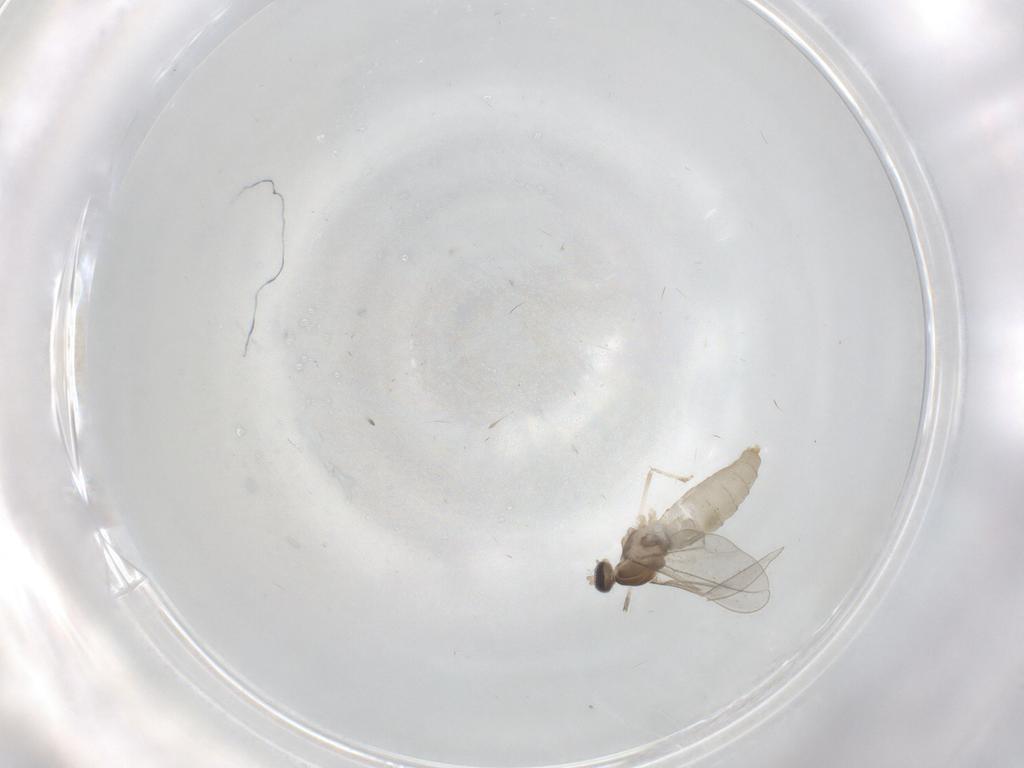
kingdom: Animalia
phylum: Arthropoda
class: Insecta
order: Diptera
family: Cecidomyiidae
